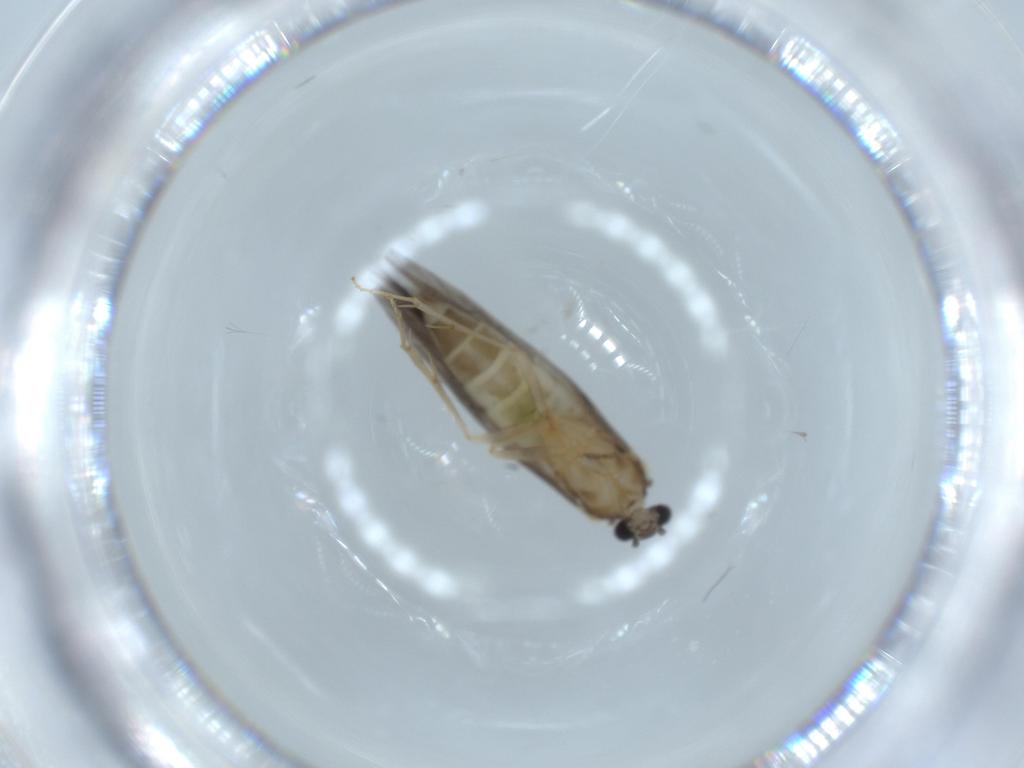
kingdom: Animalia
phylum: Arthropoda
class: Insecta
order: Trichoptera
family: Hydroptilidae
